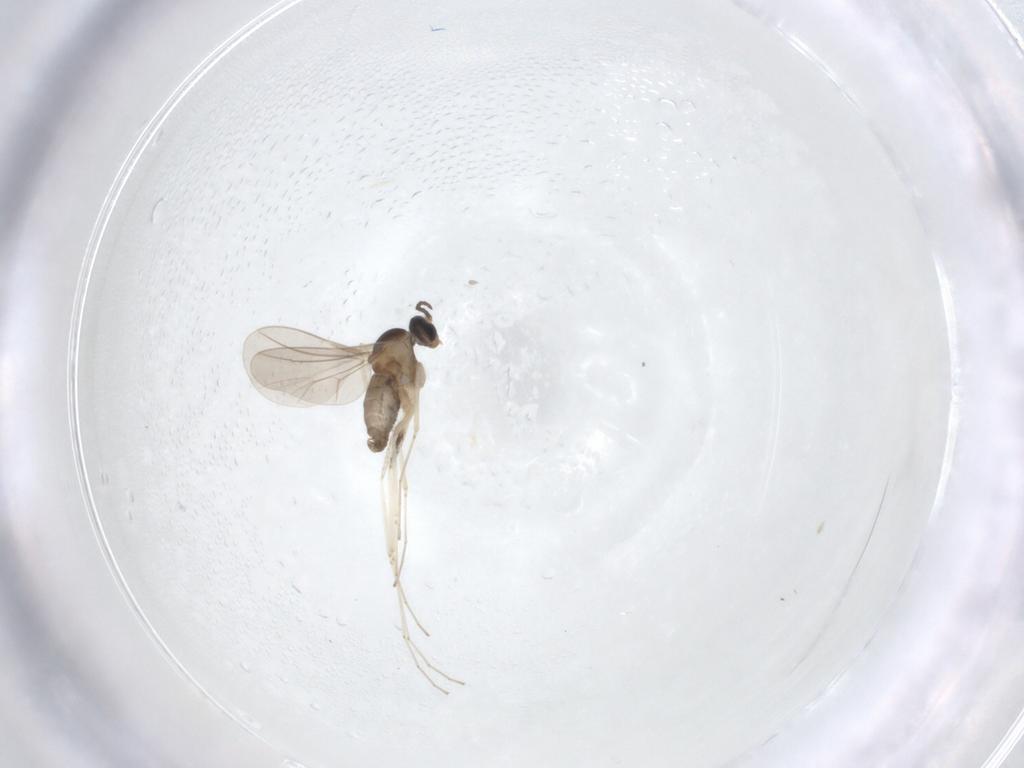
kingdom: Animalia
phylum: Arthropoda
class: Insecta
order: Diptera
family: Cecidomyiidae
